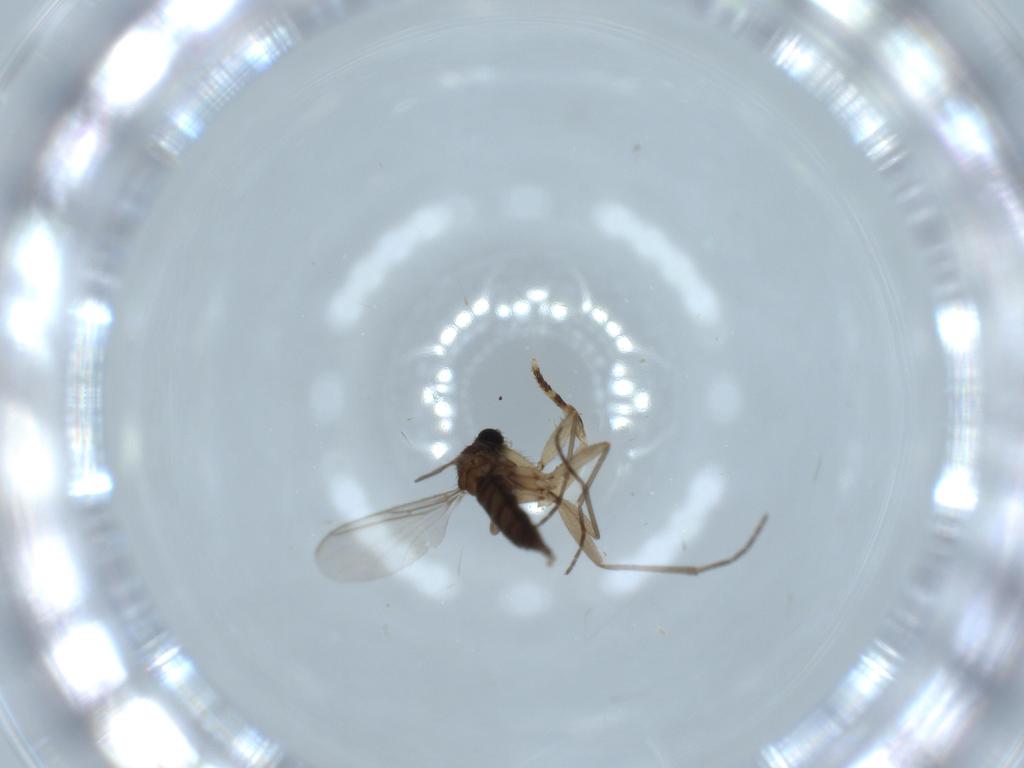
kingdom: Animalia
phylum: Arthropoda
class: Insecta
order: Diptera
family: Sciaridae
